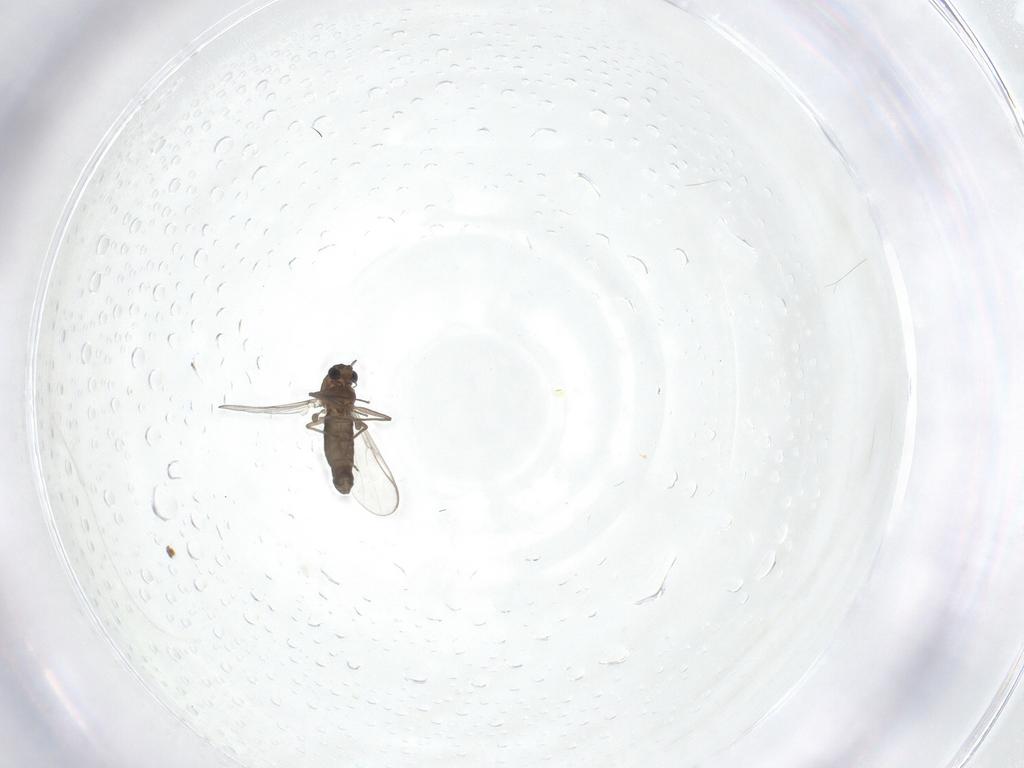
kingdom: Animalia
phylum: Arthropoda
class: Insecta
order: Diptera
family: Chironomidae
